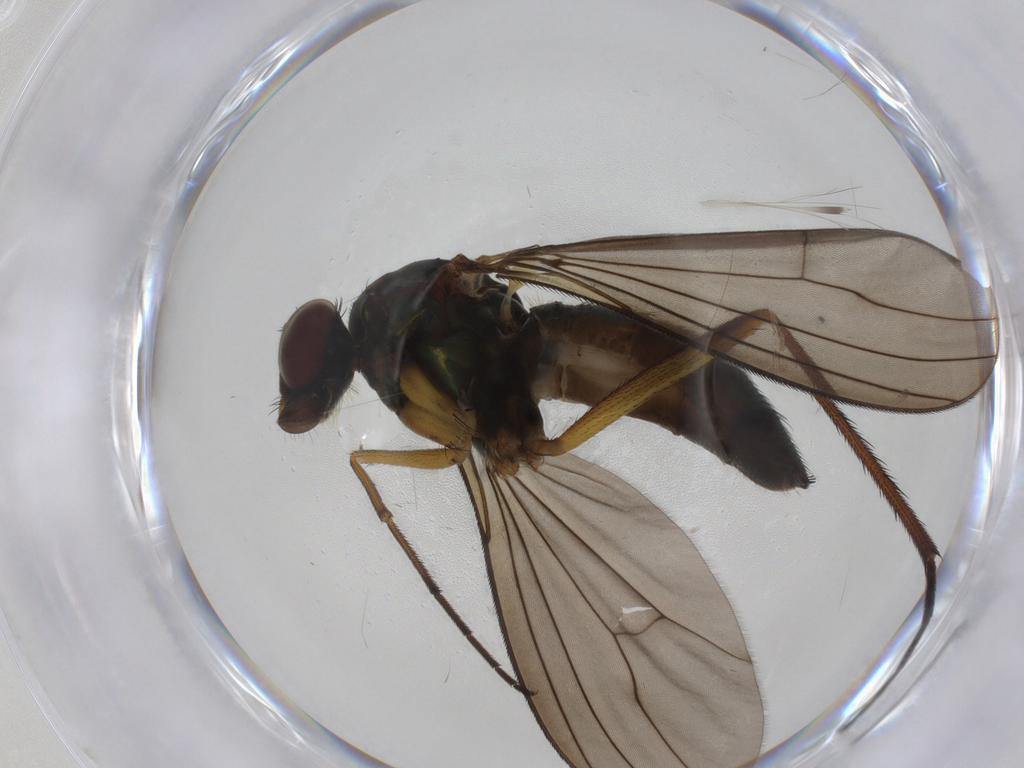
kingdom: Animalia
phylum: Arthropoda
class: Insecta
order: Diptera
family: Dolichopodidae
